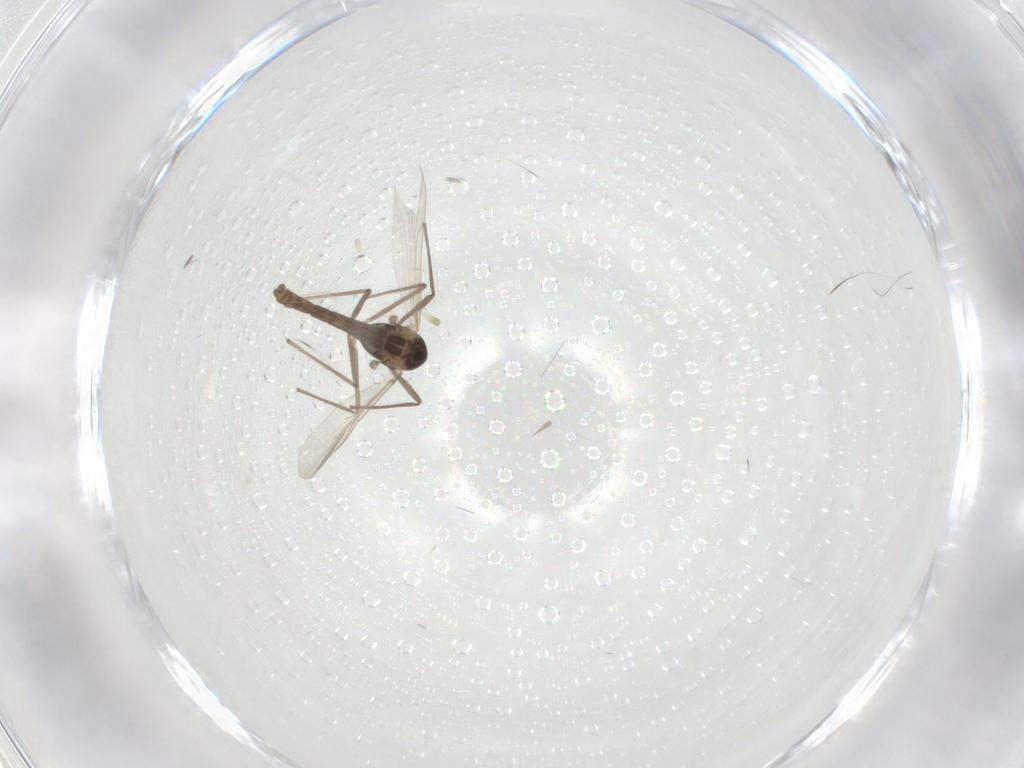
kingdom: Animalia
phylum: Arthropoda
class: Insecta
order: Diptera
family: Chironomidae
